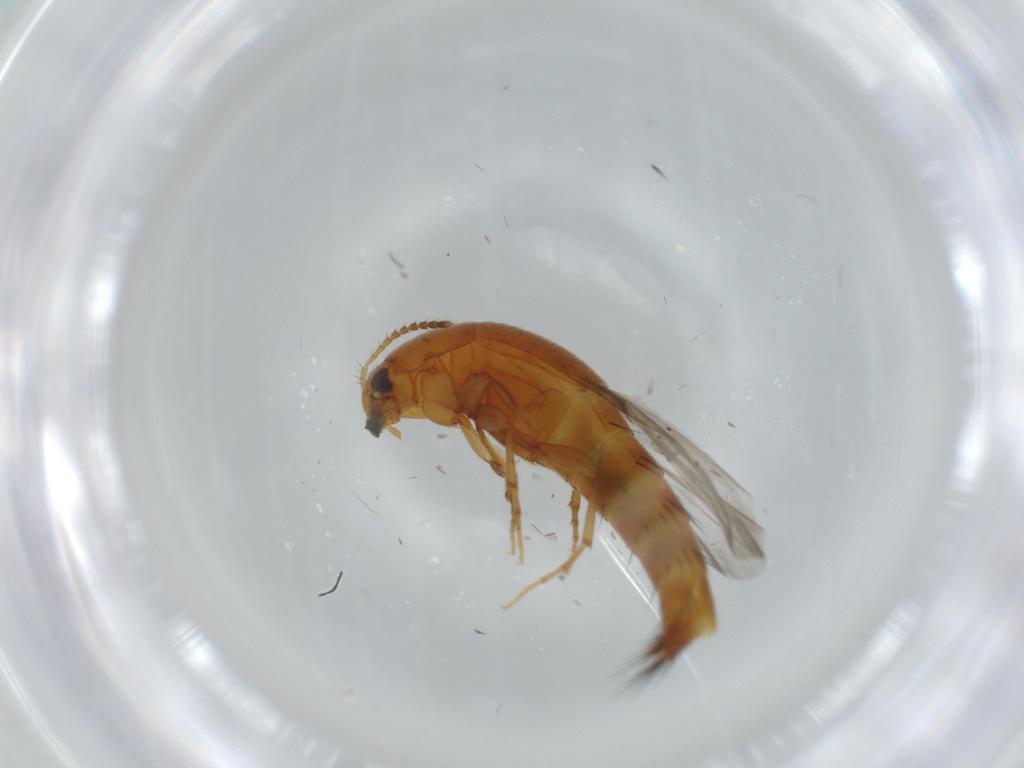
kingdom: Animalia
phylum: Arthropoda
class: Insecta
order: Coleoptera
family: Staphylinidae
